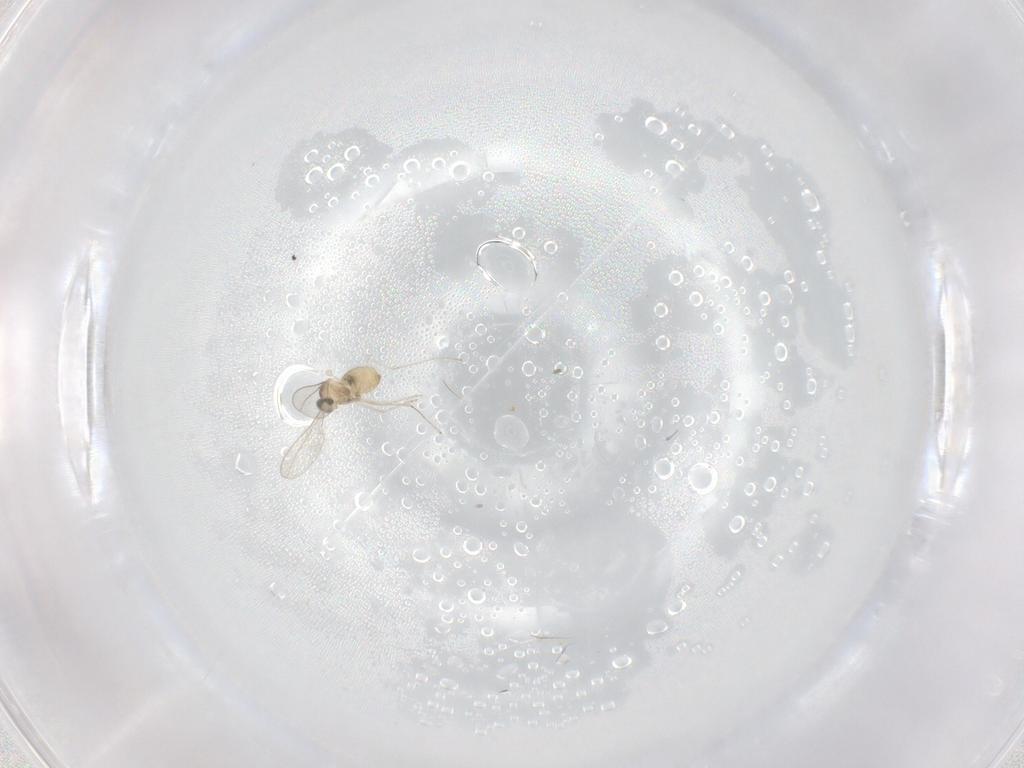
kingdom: Animalia
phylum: Arthropoda
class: Insecta
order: Diptera
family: Cecidomyiidae
